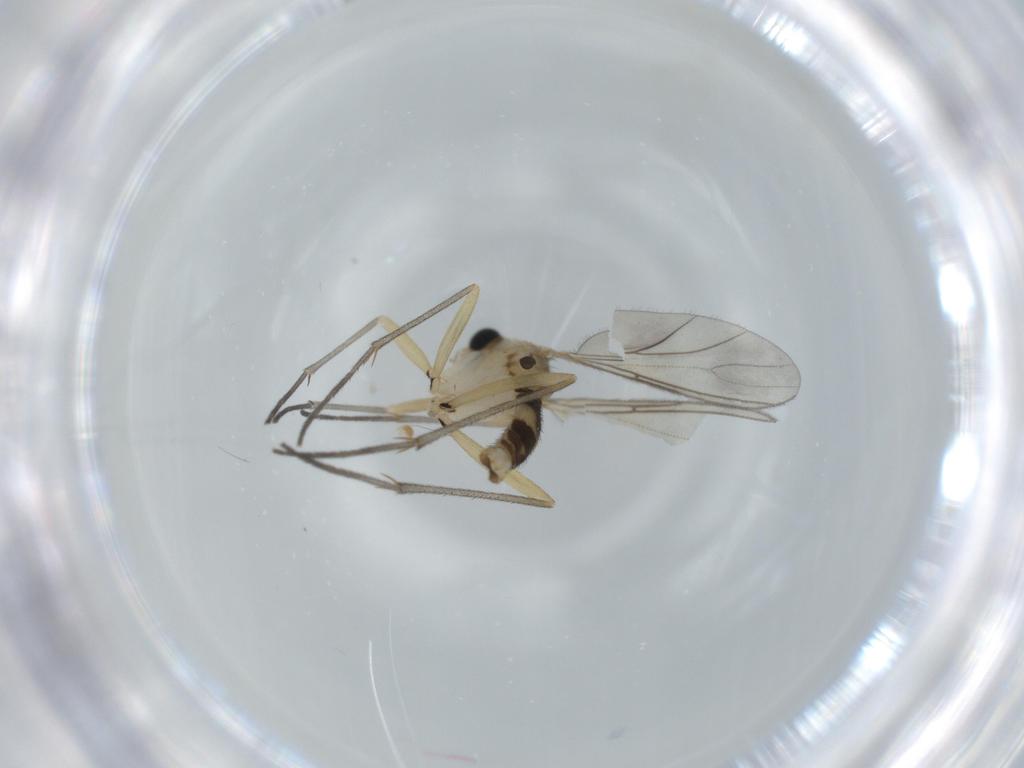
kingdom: Animalia
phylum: Arthropoda
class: Insecta
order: Diptera
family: Sciaridae
